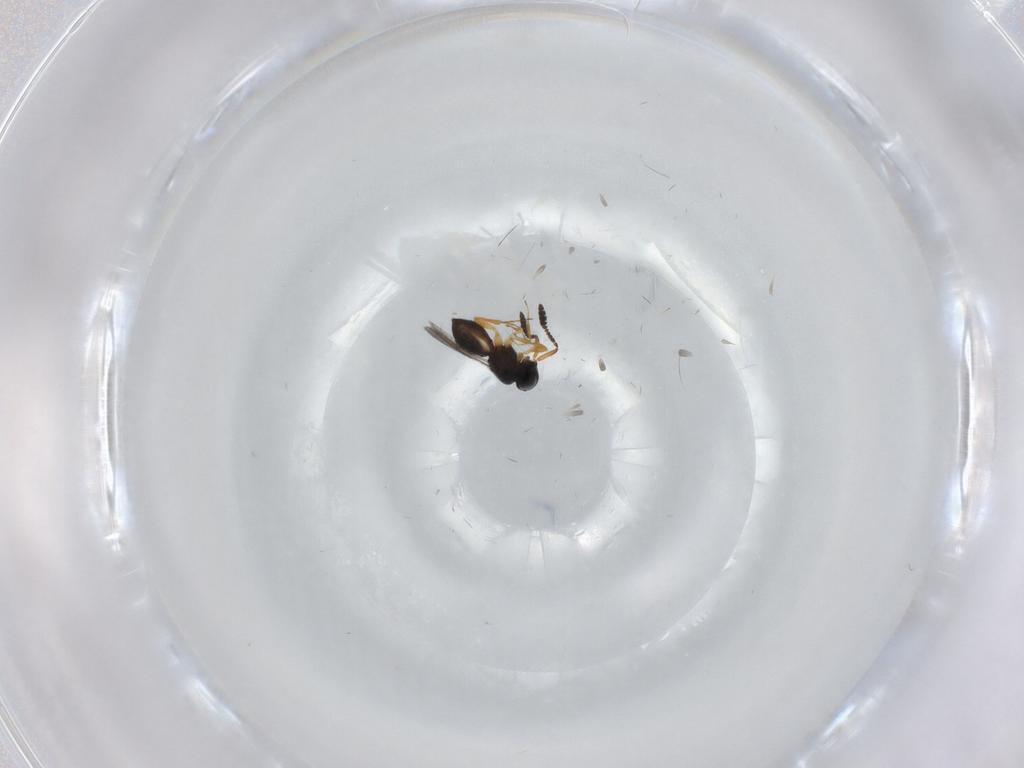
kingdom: Animalia
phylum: Arthropoda
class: Insecta
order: Hymenoptera
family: Scelionidae
